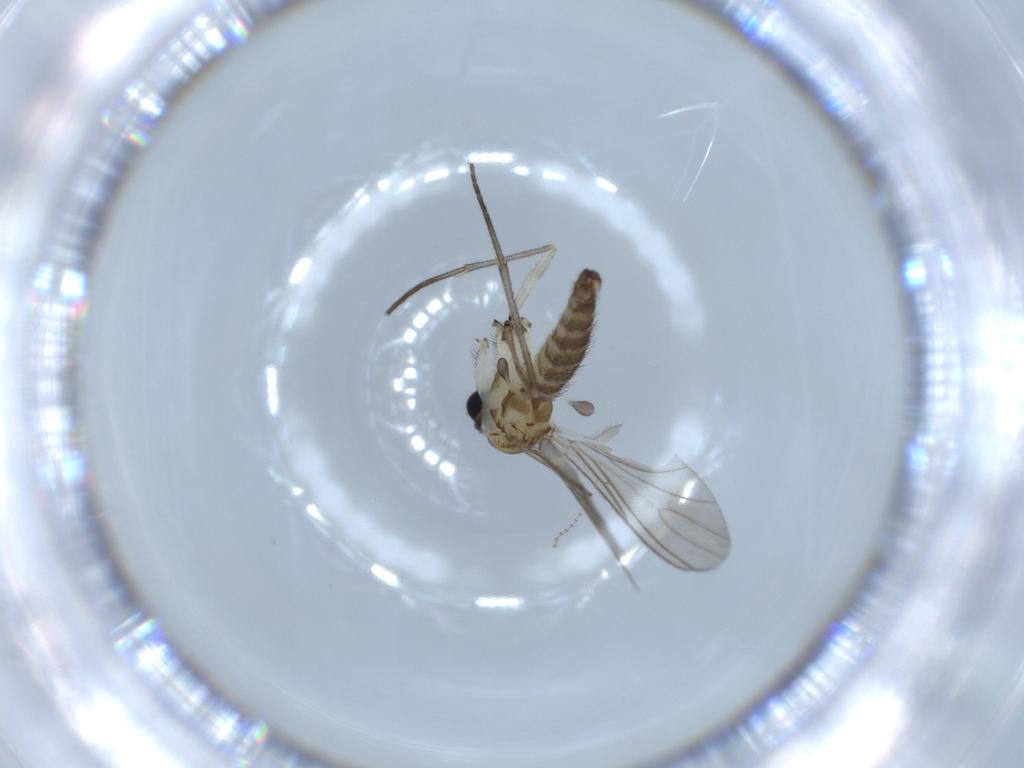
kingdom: Animalia
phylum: Arthropoda
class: Insecta
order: Diptera
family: Sciaridae
